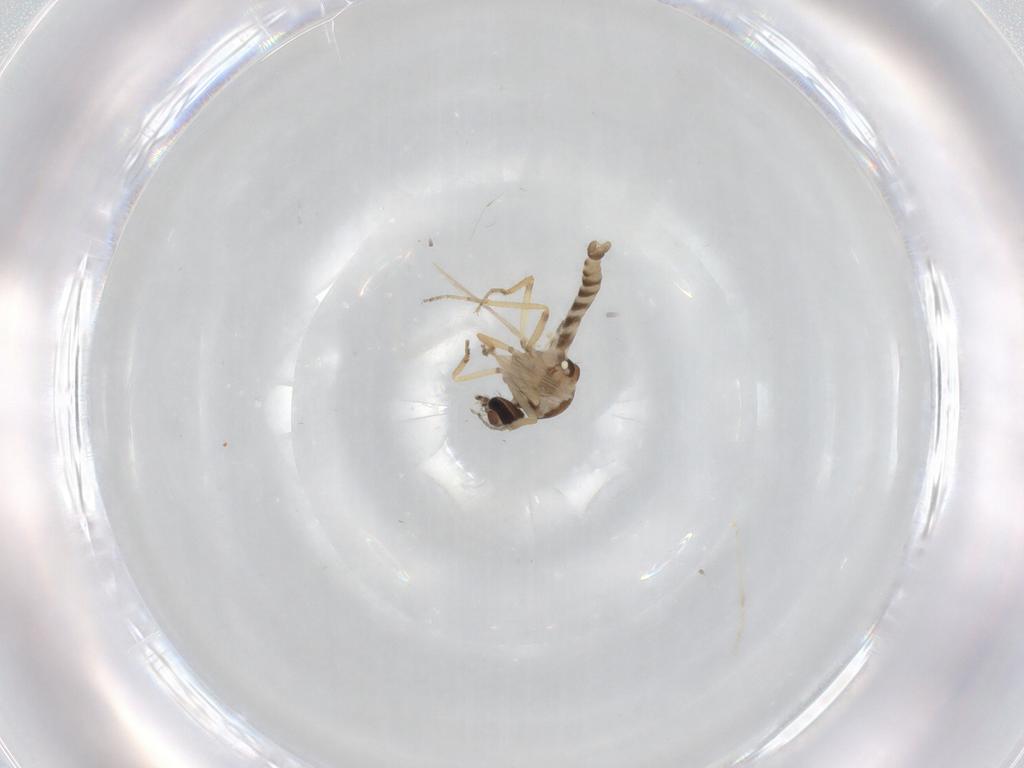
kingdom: Animalia
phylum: Arthropoda
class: Insecta
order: Diptera
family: Ceratopogonidae
